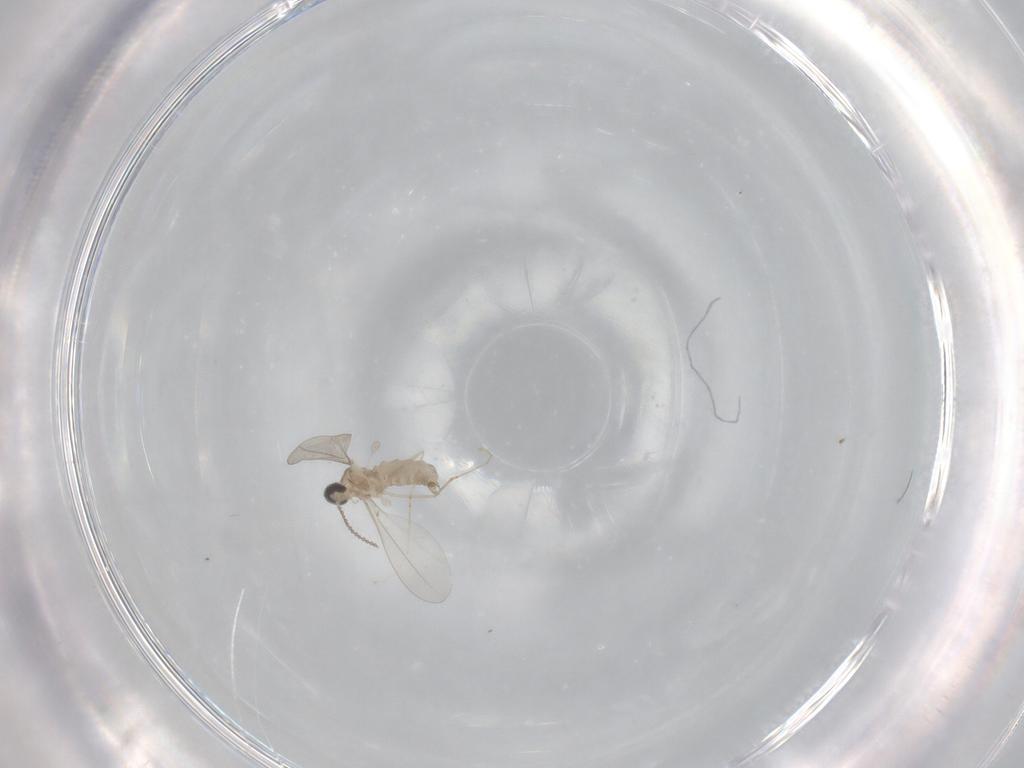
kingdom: Animalia
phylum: Arthropoda
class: Insecta
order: Diptera
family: Cecidomyiidae
